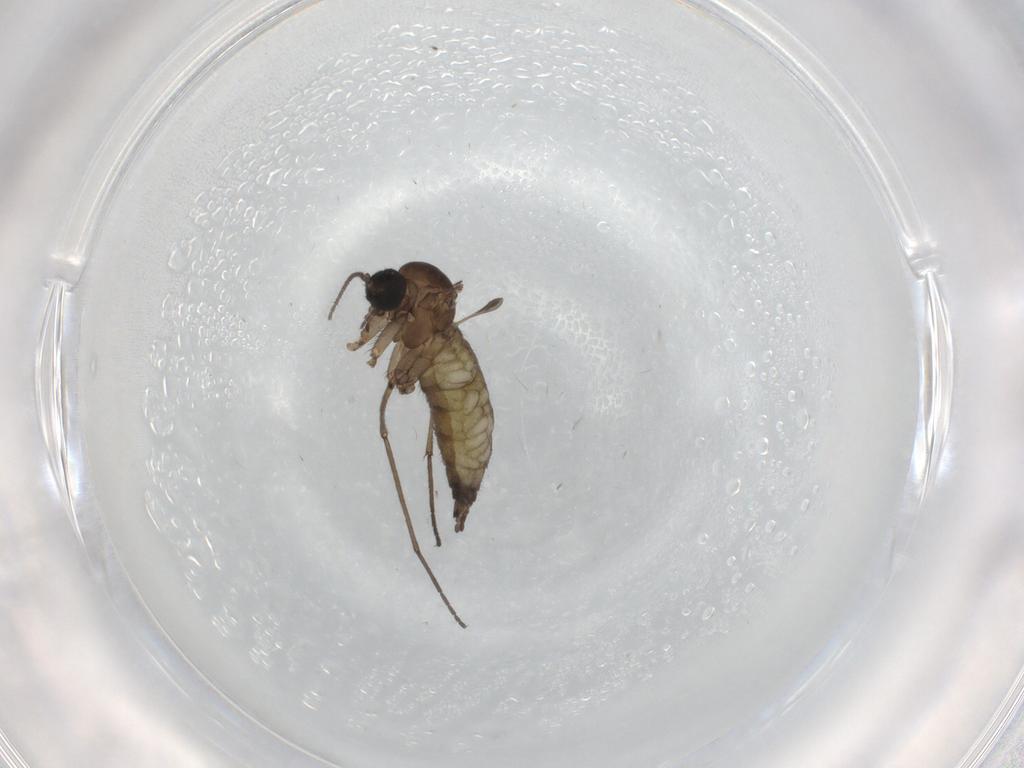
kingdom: Animalia
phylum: Arthropoda
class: Insecta
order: Diptera
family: Sciaridae
